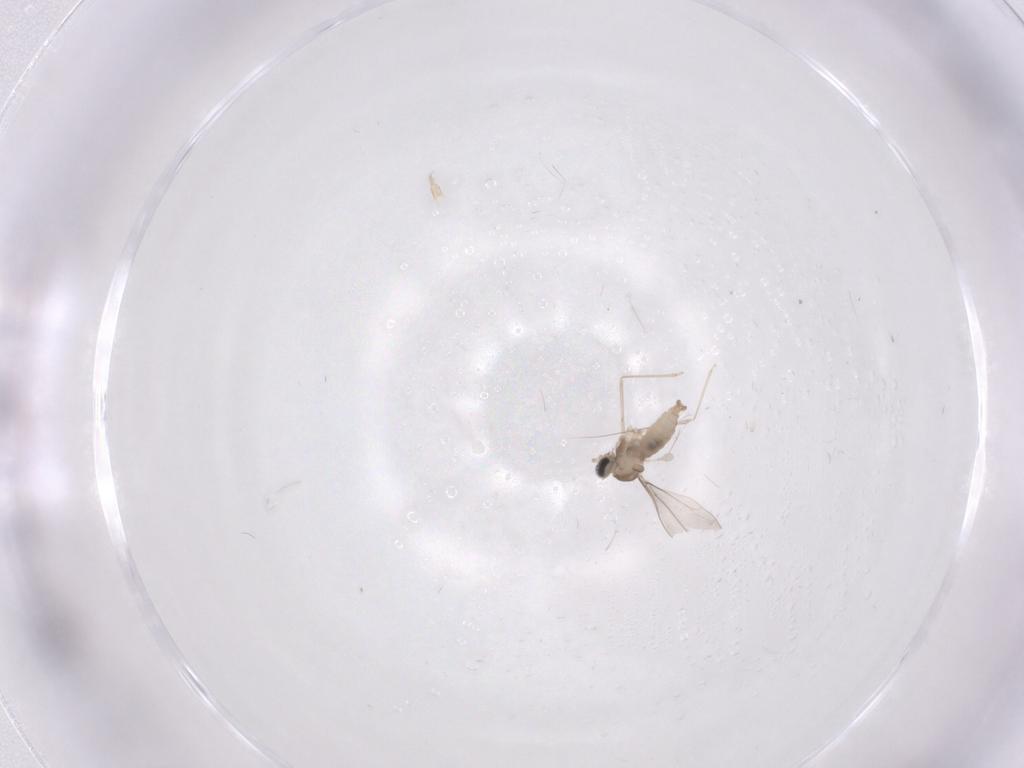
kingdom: Animalia
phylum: Arthropoda
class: Insecta
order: Diptera
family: Cecidomyiidae
